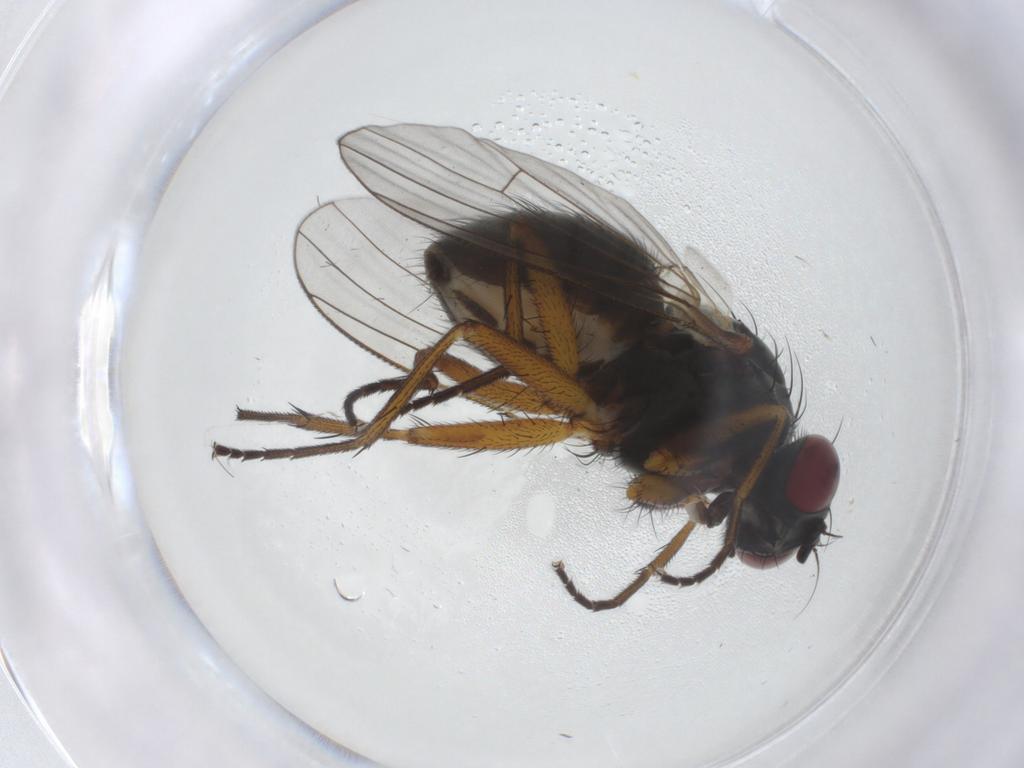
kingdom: Animalia
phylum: Arthropoda
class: Insecta
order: Diptera
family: Muscidae
